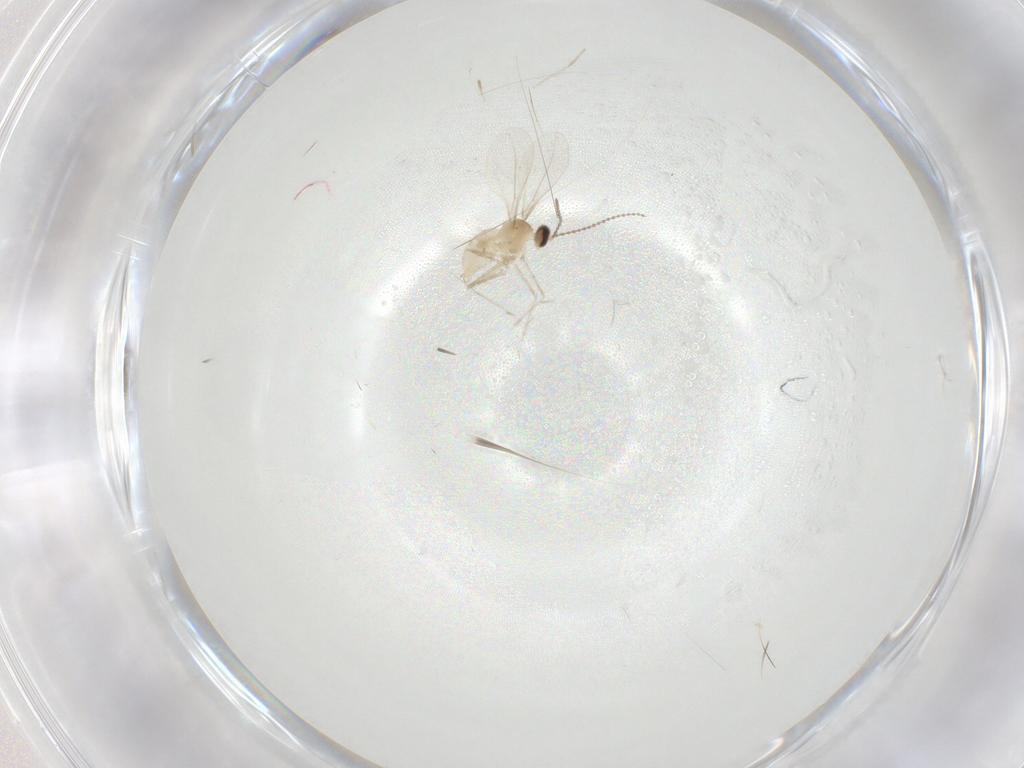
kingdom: Animalia
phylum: Arthropoda
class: Insecta
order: Diptera
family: Cecidomyiidae
